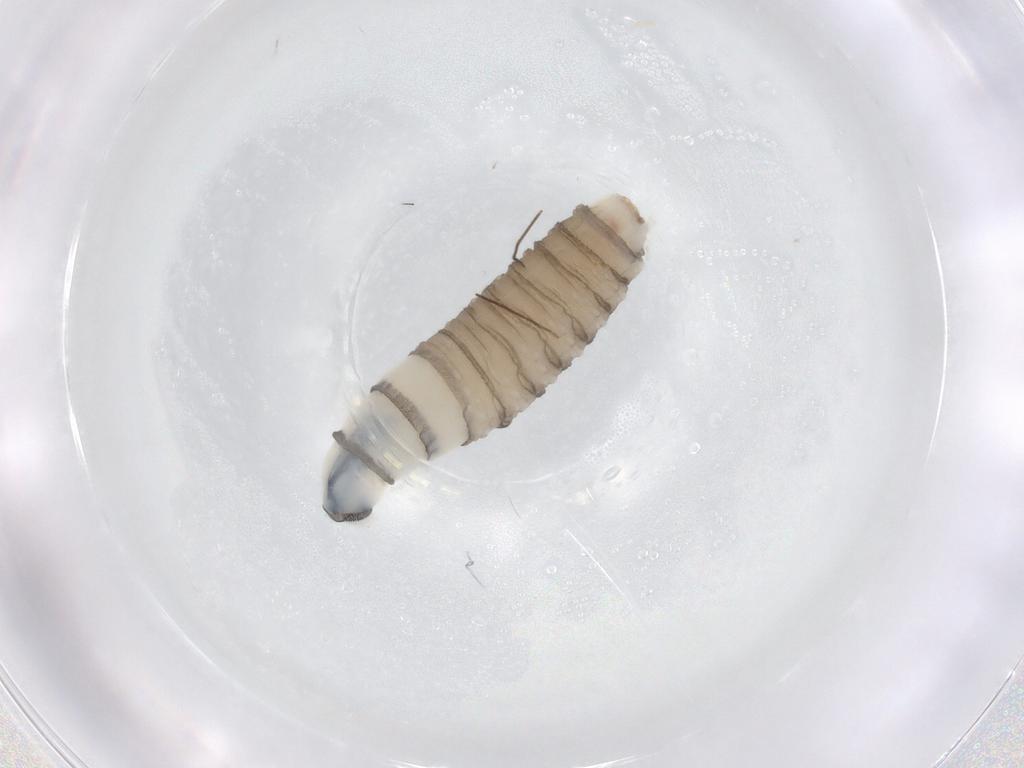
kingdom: Animalia
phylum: Arthropoda
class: Insecta
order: Diptera
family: Sarcophagidae
